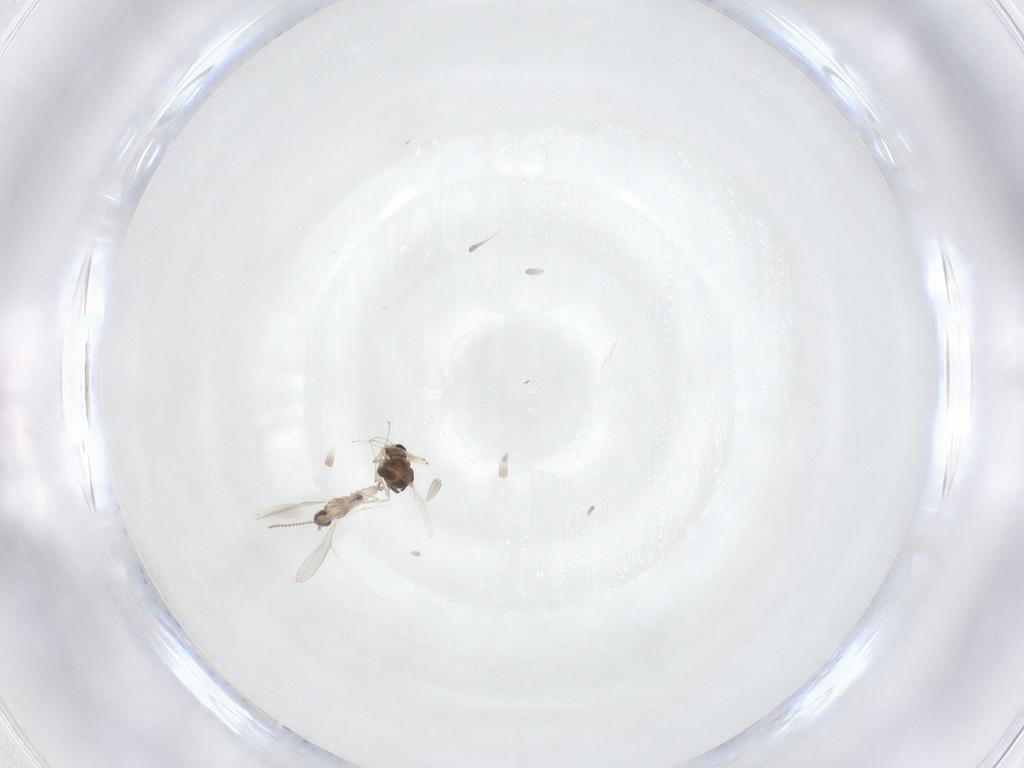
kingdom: Animalia
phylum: Arthropoda
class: Insecta
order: Diptera
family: Chironomidae
